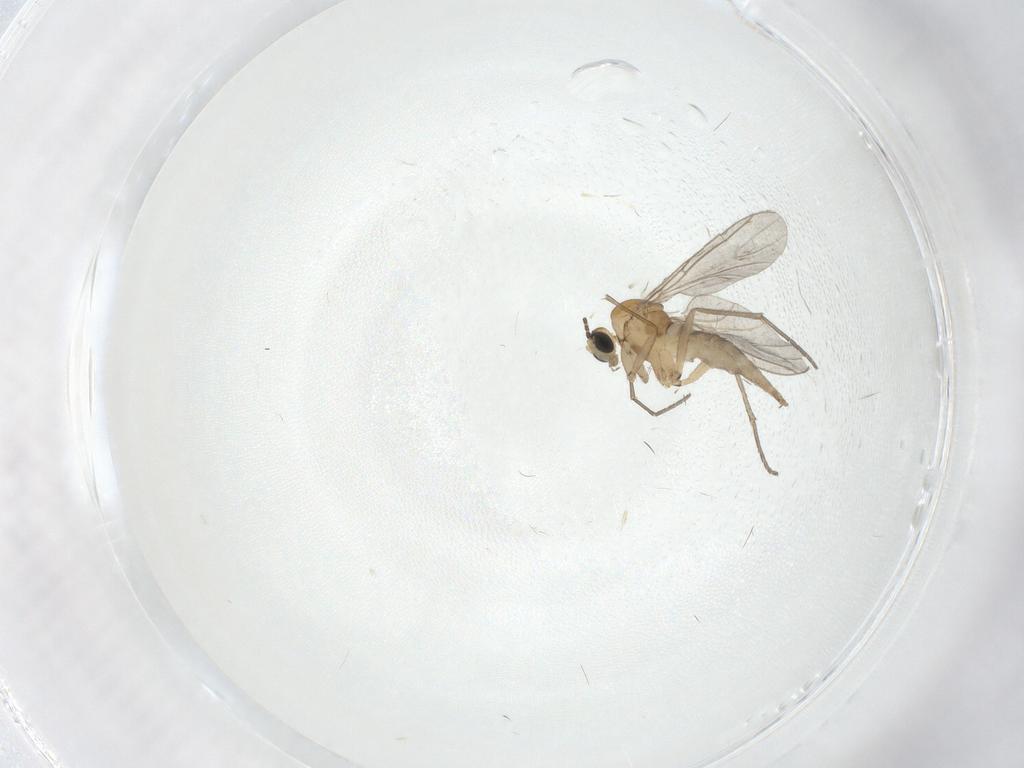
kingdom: Animalia
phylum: Arthropoda
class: Insecta
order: Diptera
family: Sciaridae
